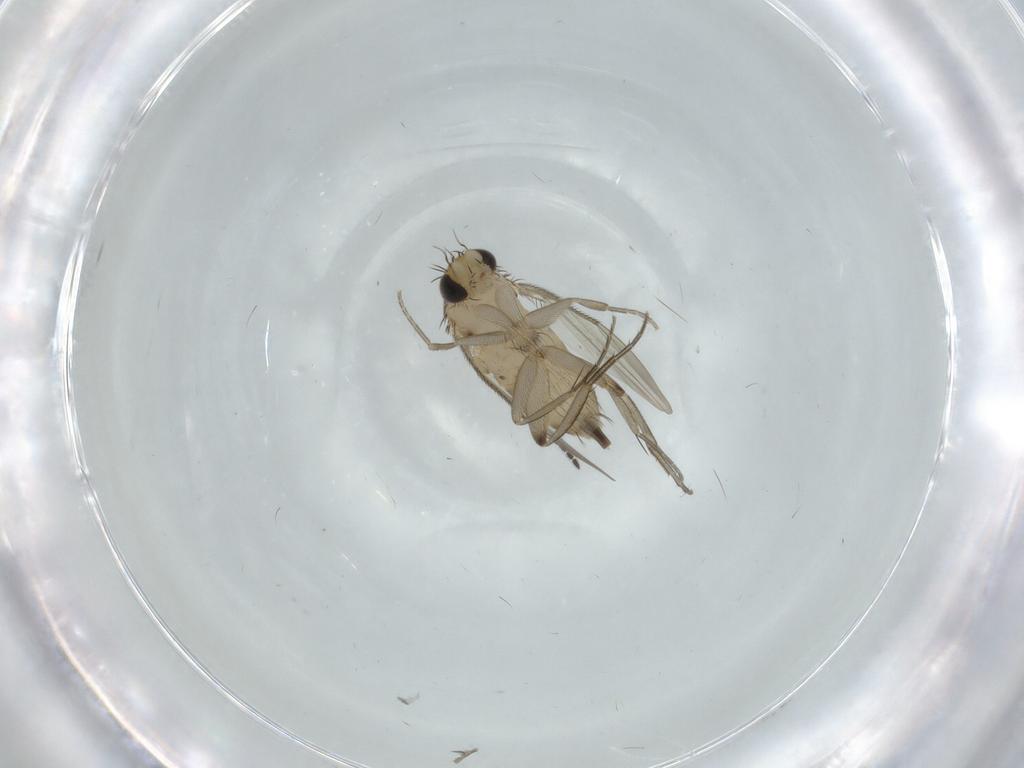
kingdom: Animalia
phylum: Arthropoda
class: Insecta
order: Diptera
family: Sciaridae
